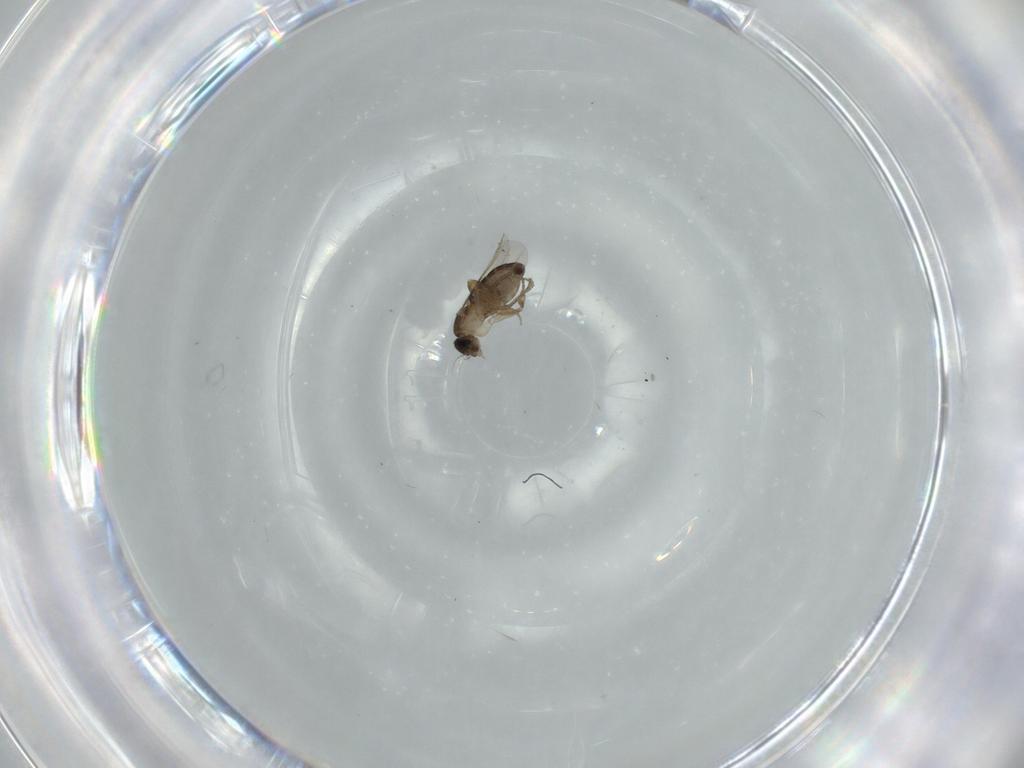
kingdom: Animalia
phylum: Arthropoda
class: Insecta
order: Diptera
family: Phoridae
